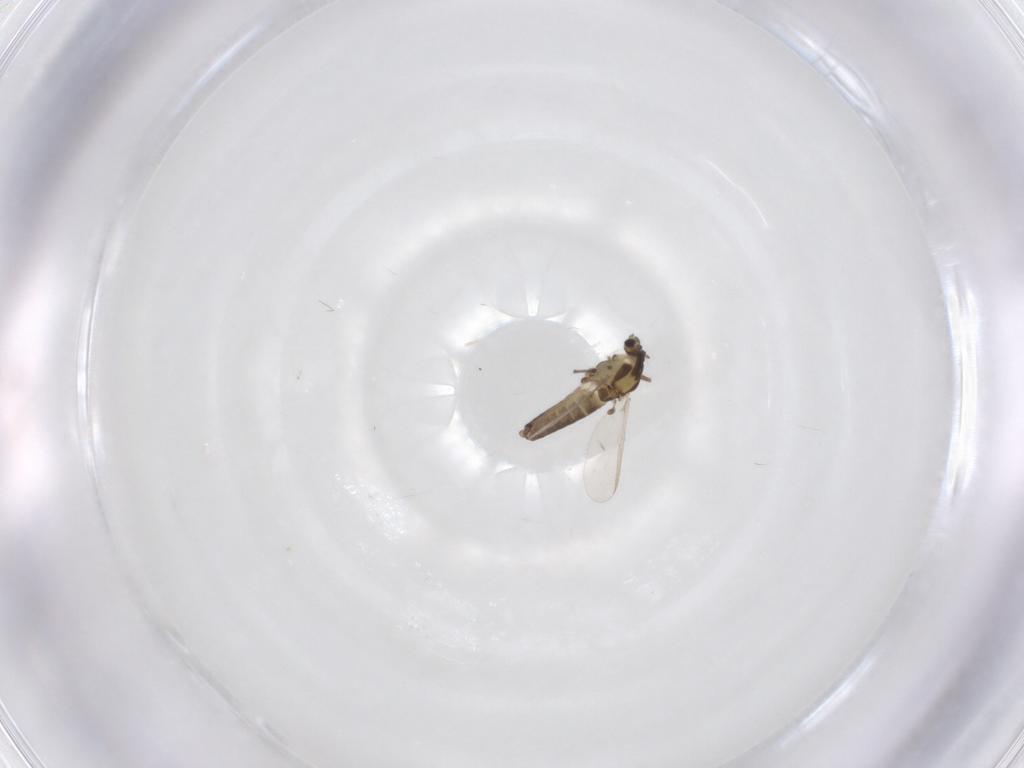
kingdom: Animalia
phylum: Arthropoda
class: Insecta
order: Diptera
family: Chironomidae
